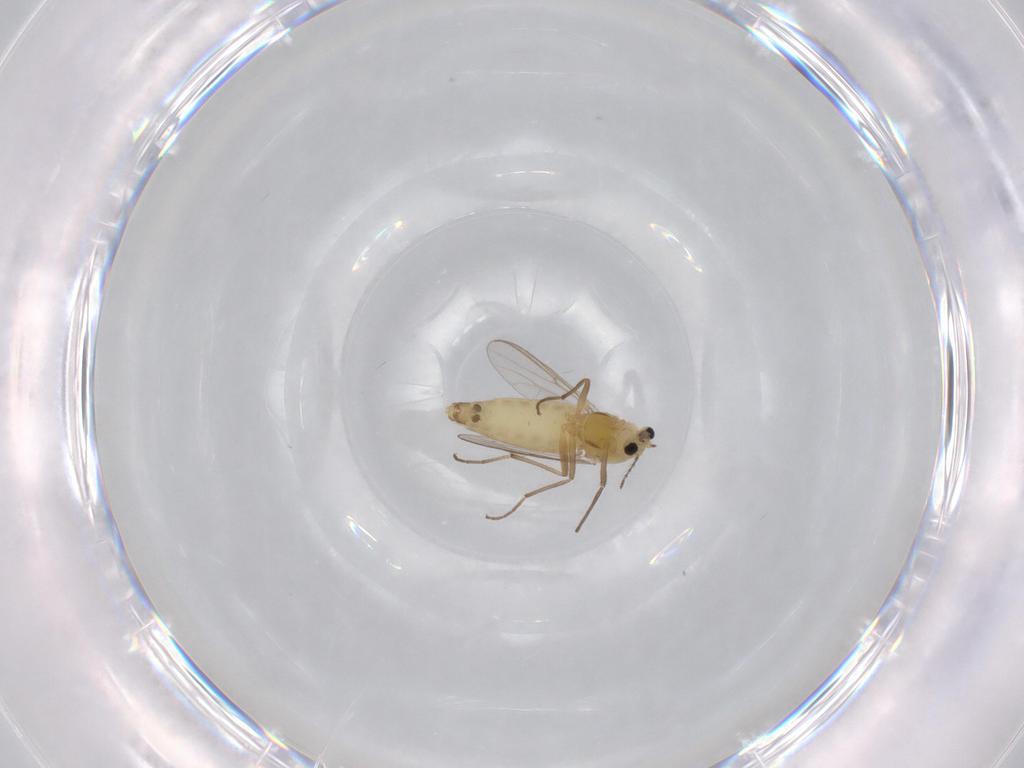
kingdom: Animalia
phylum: Arthropoda
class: Insecta
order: Diptera
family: Chironomidae
